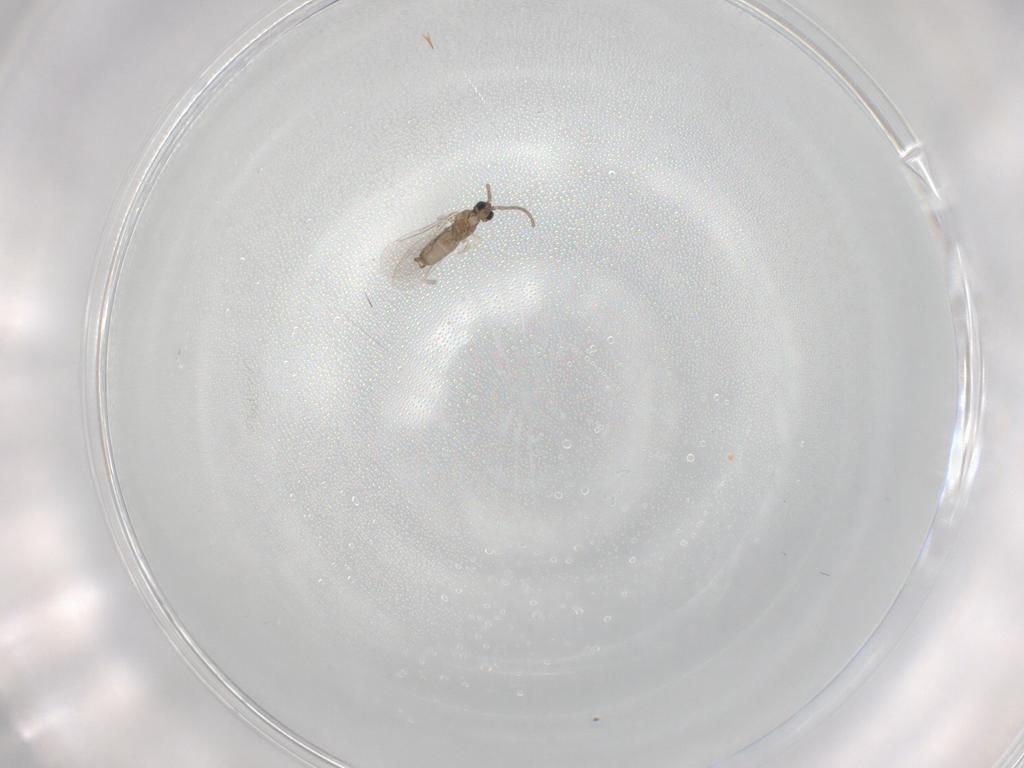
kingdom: Animalia
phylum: Arthropoda
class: Insecta
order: Diptera
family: Cecidomyiidae
